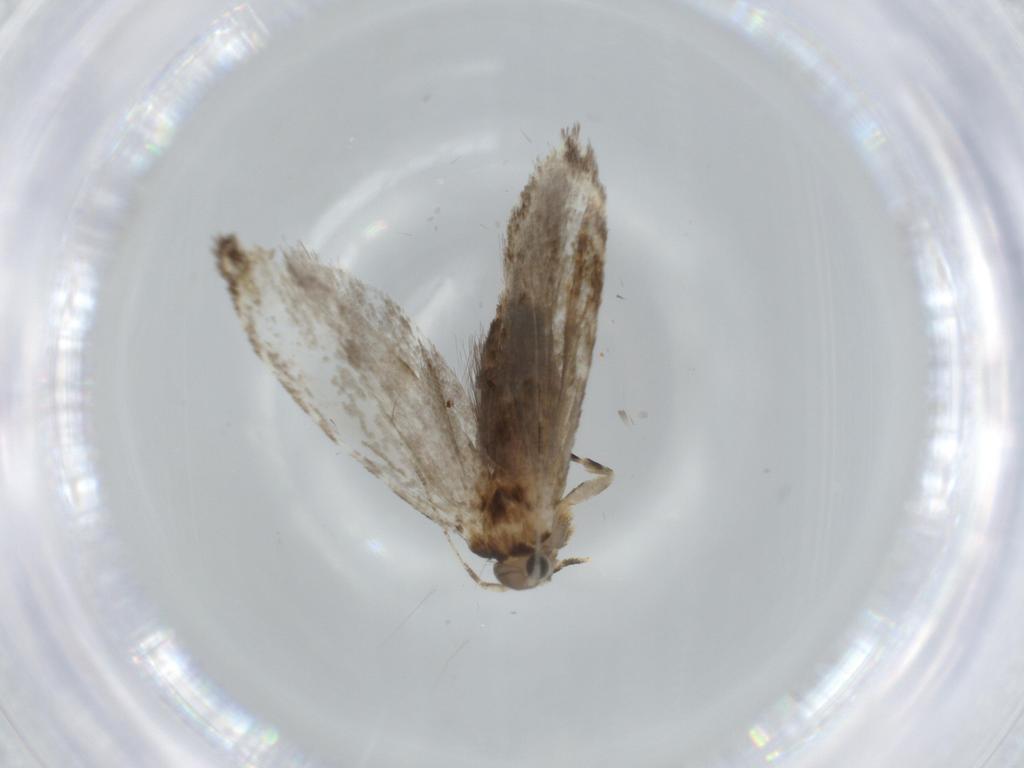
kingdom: Animalia
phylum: Arthropoda
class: Insecta
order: Lepidoptera
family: Tineidae
